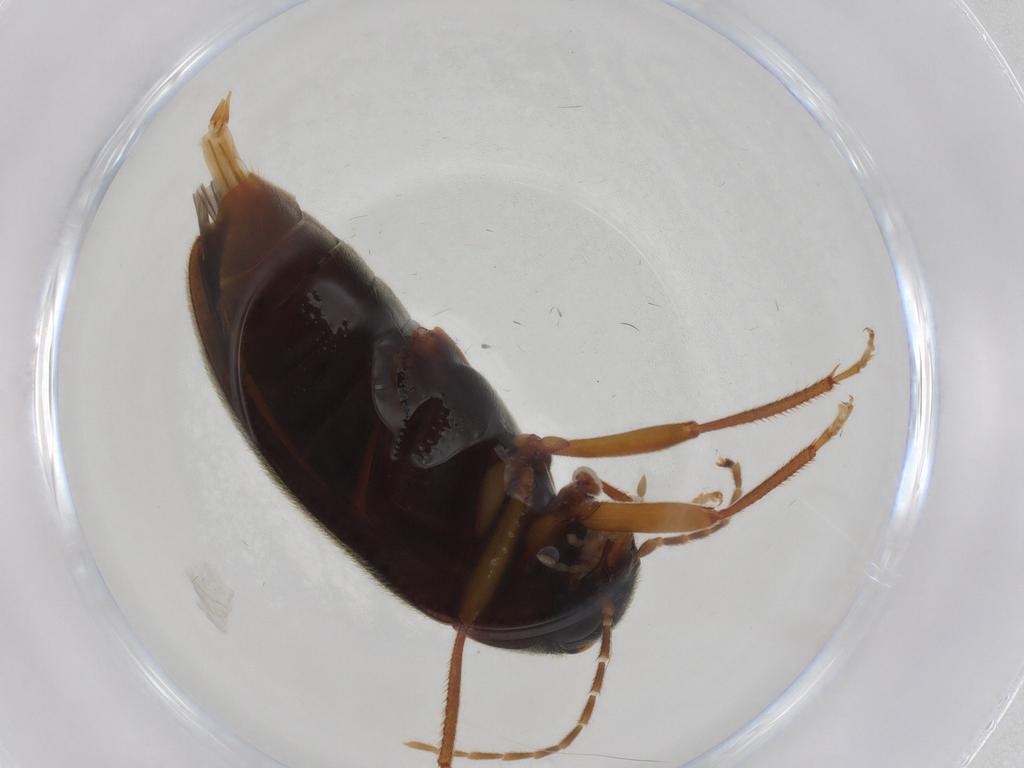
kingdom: Animalia
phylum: Arthropoda
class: Insecta
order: Coleoptera
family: Ptilodactylidae
